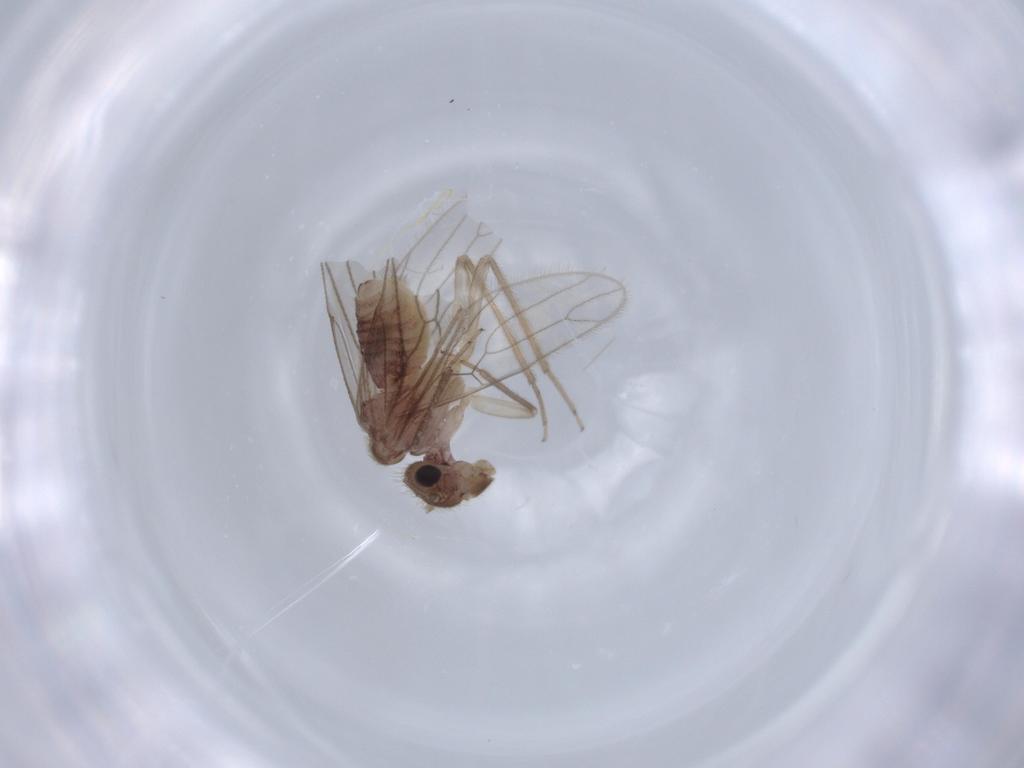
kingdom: Animalia
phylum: Arthropoda
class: Insecta
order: Psocodea
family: Cladiopsocidae
